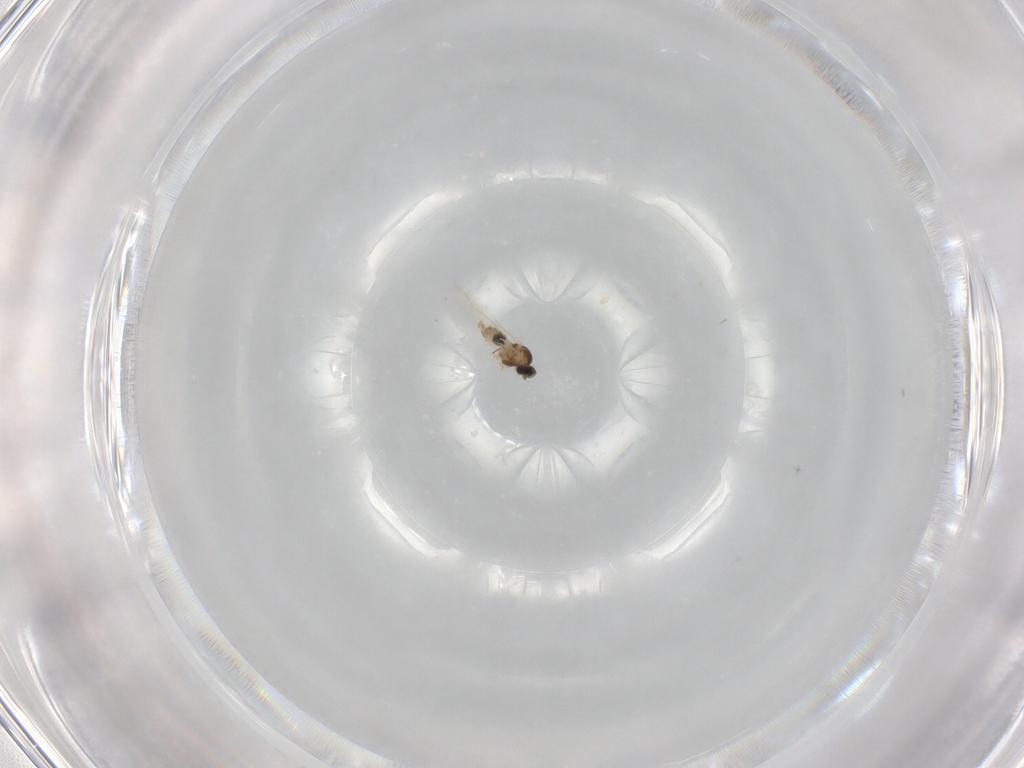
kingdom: Animalia
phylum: Arthropoda
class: Insecta
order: Diptera
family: Cecidomyiidae
